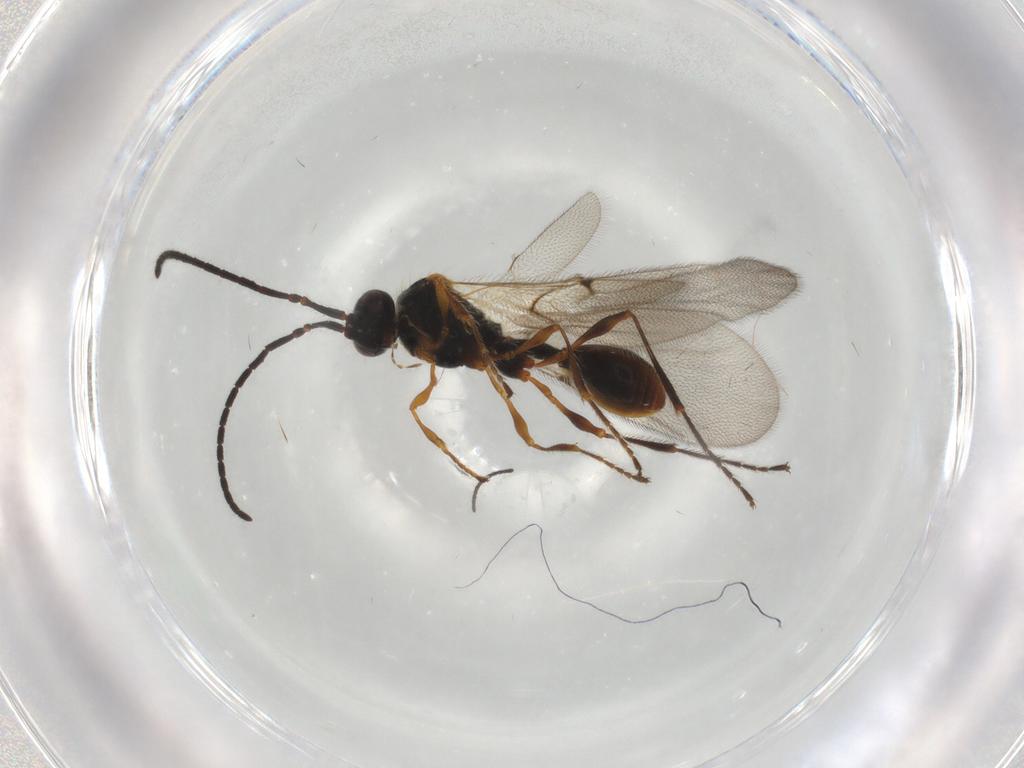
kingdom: Animalia
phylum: Arthropoda
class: Insecta
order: Hymenoptera
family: Diapriidae
